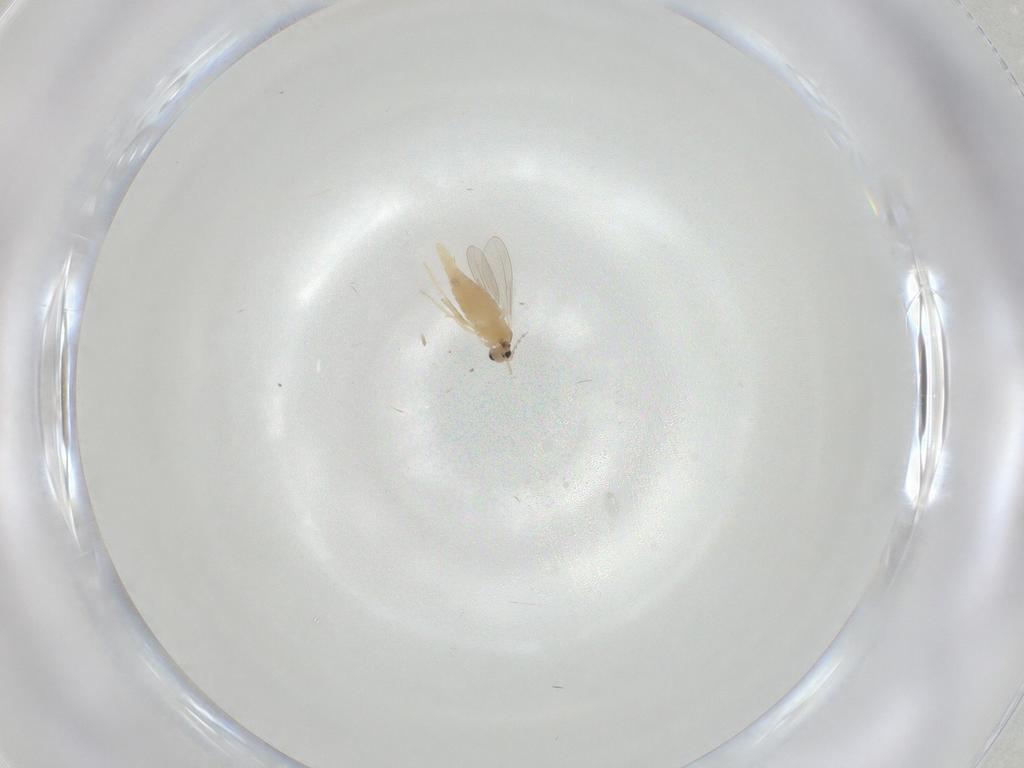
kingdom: Animalia
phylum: Arthropoda
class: Insecta
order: Diptera
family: Cecidomyiidae
